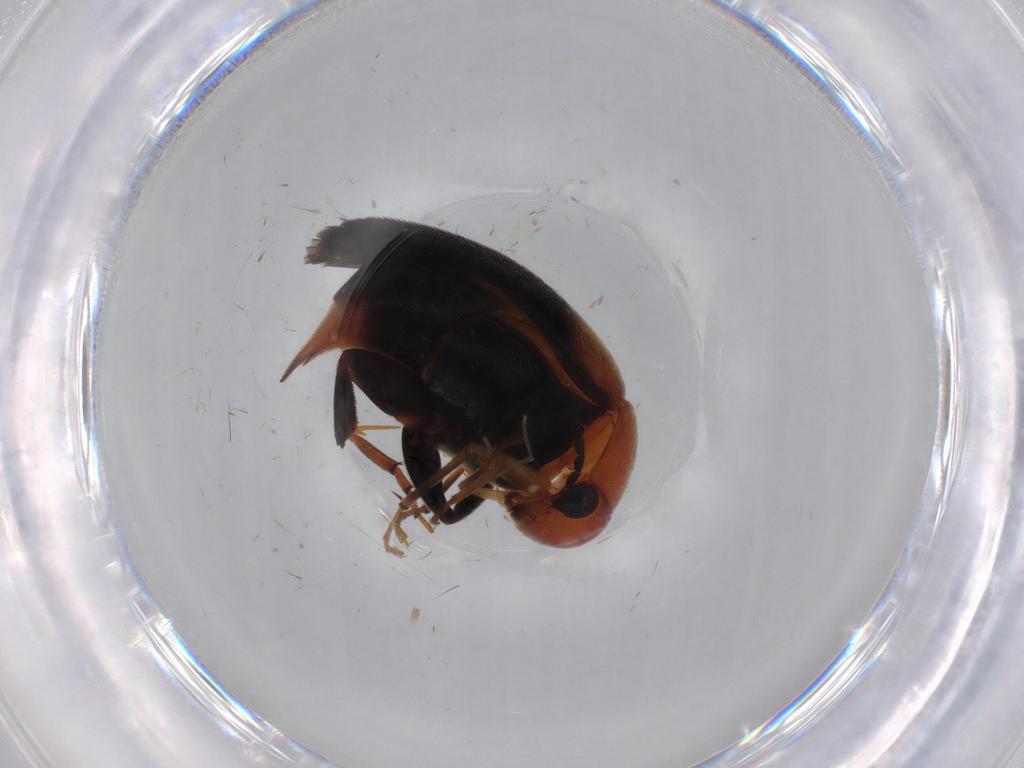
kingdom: Animalia
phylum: Arthropoda
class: Insecta
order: Coleoptera
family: Mordellidae
